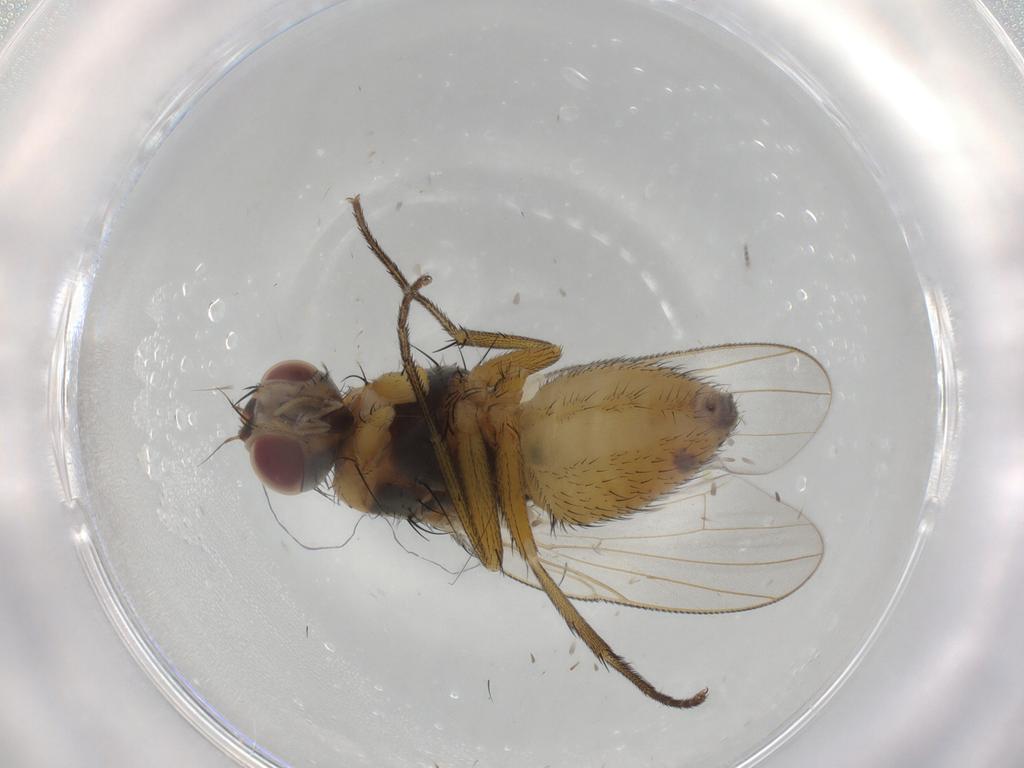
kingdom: Animalia
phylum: Arthropoda
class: Insecta
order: Diptera
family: Muscidae
